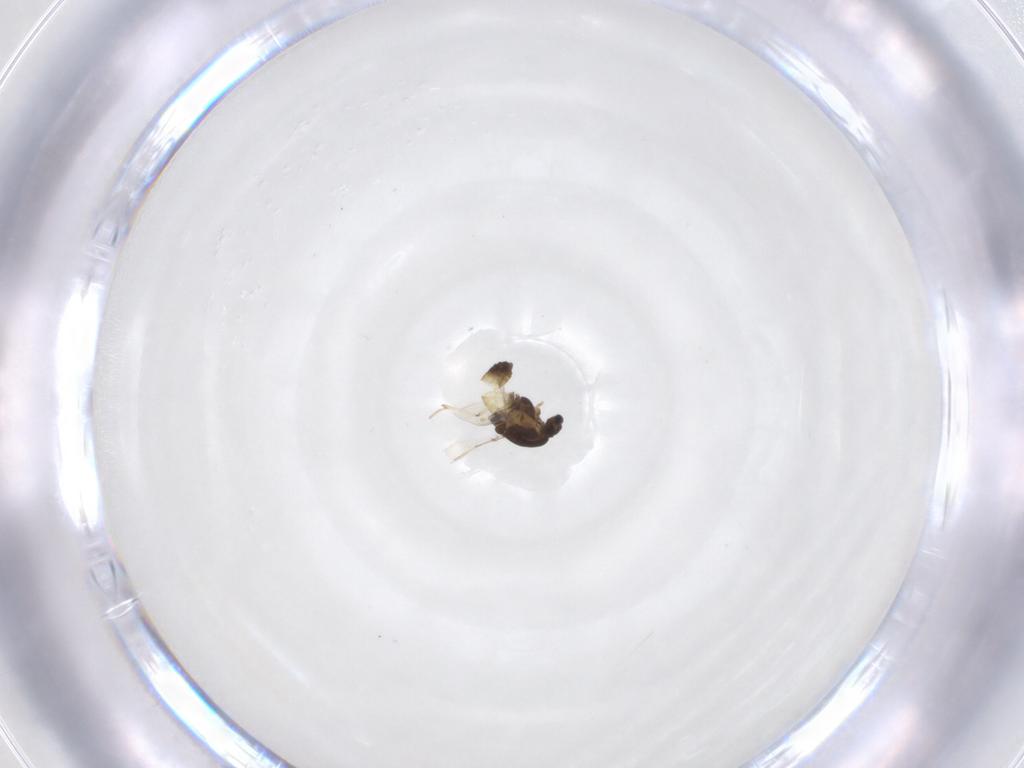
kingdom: Animalia
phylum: Arthropoda
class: Insecta
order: Diptera
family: Chironomidae
